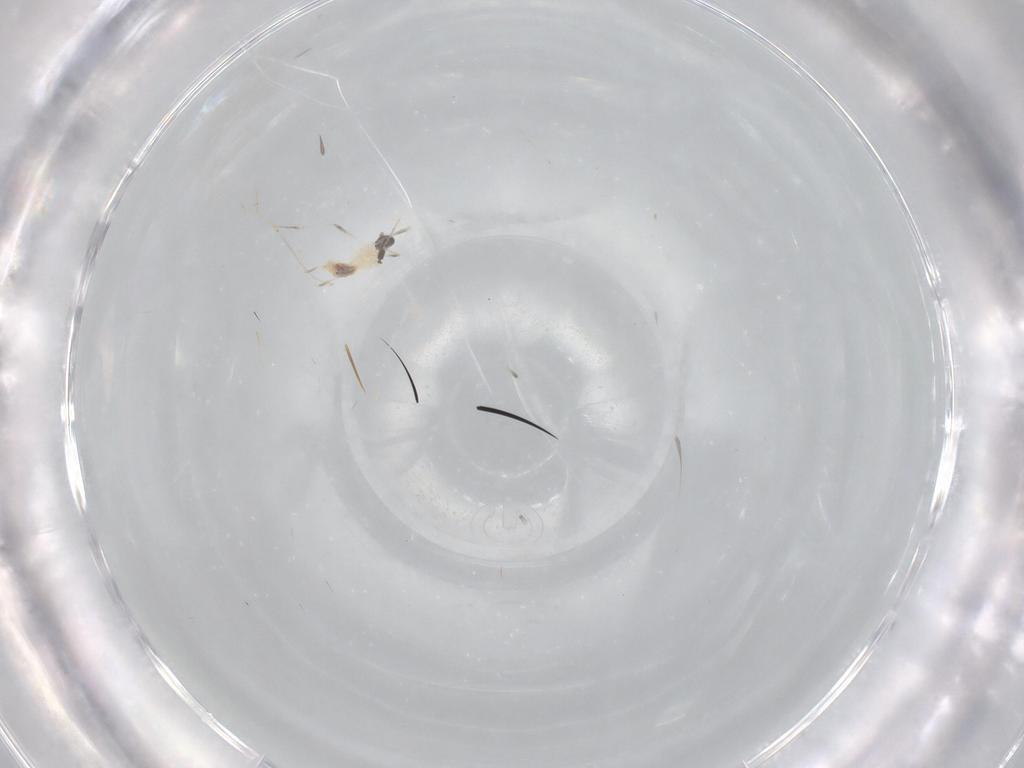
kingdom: Animalia
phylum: Arthropoda
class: Insecta
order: Diptera
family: Cecidomyiidae
